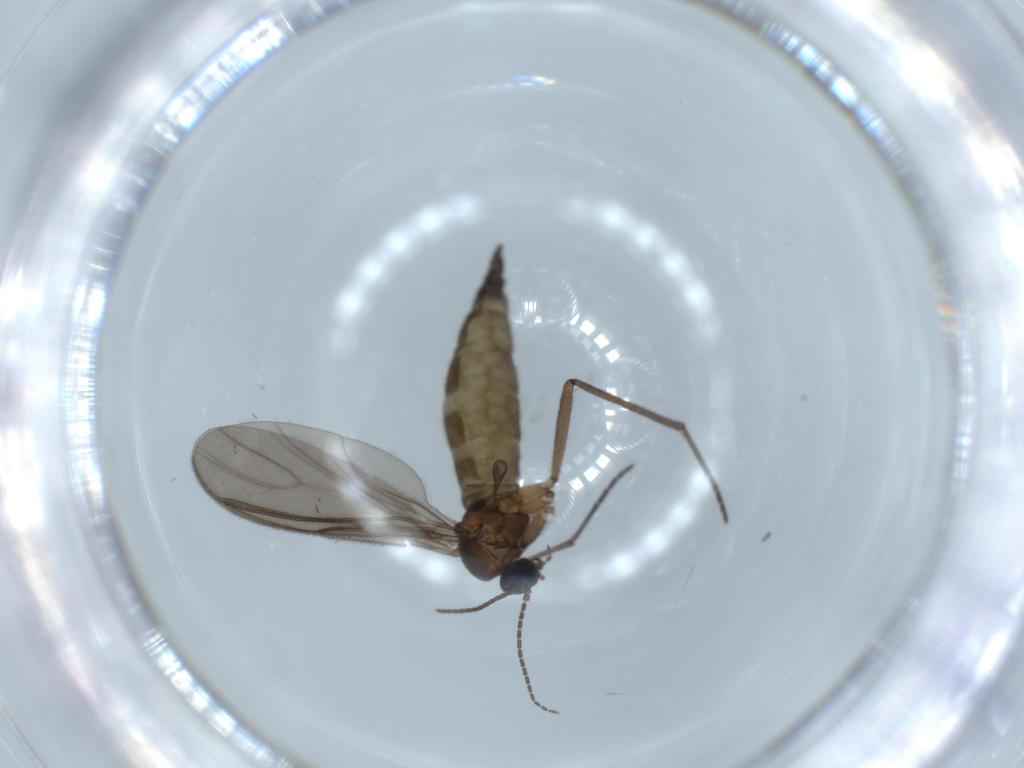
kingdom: Animalia
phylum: Arthropoda
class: Insecta
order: Diptera
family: Sciaridae
